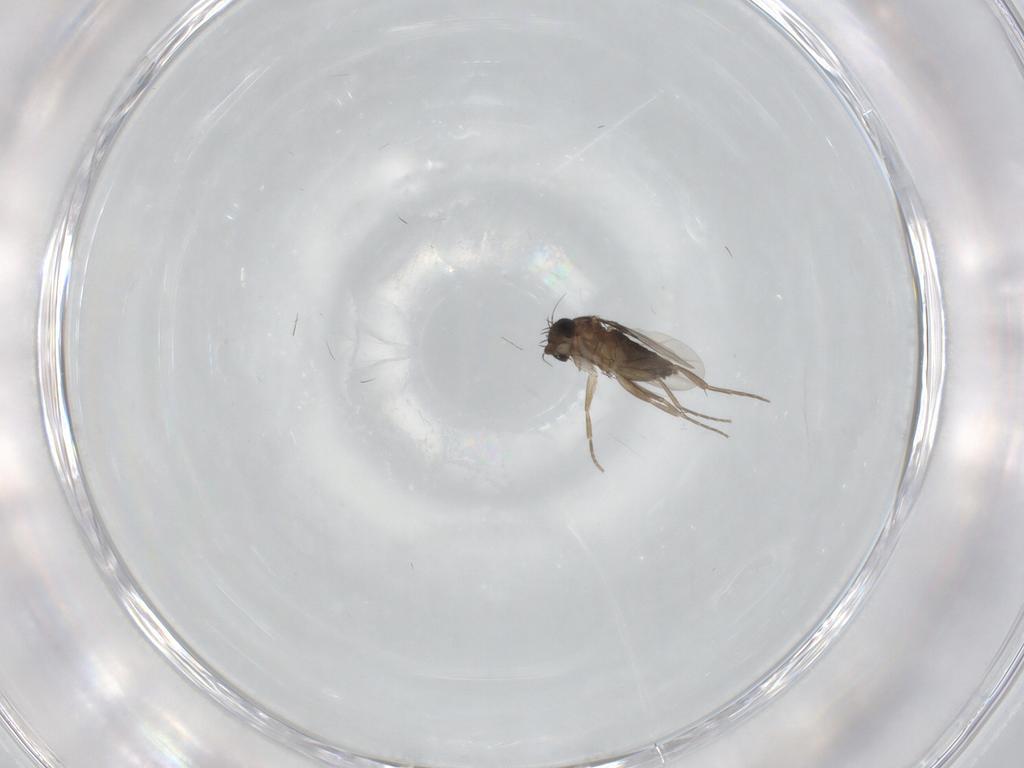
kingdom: Animalia
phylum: Arthropoda
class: Insecta
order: Diptera
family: Phoridae
